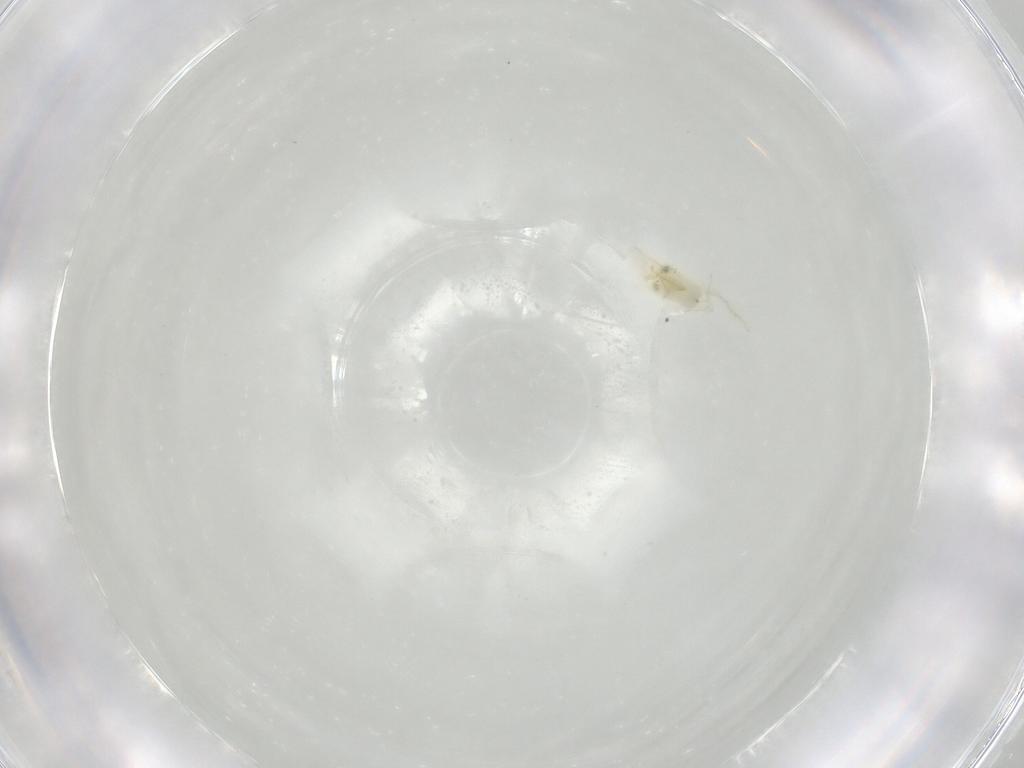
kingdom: Animalia
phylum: Arthropoda
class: Insecta
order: Hymenoptera
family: Aphelinidae
